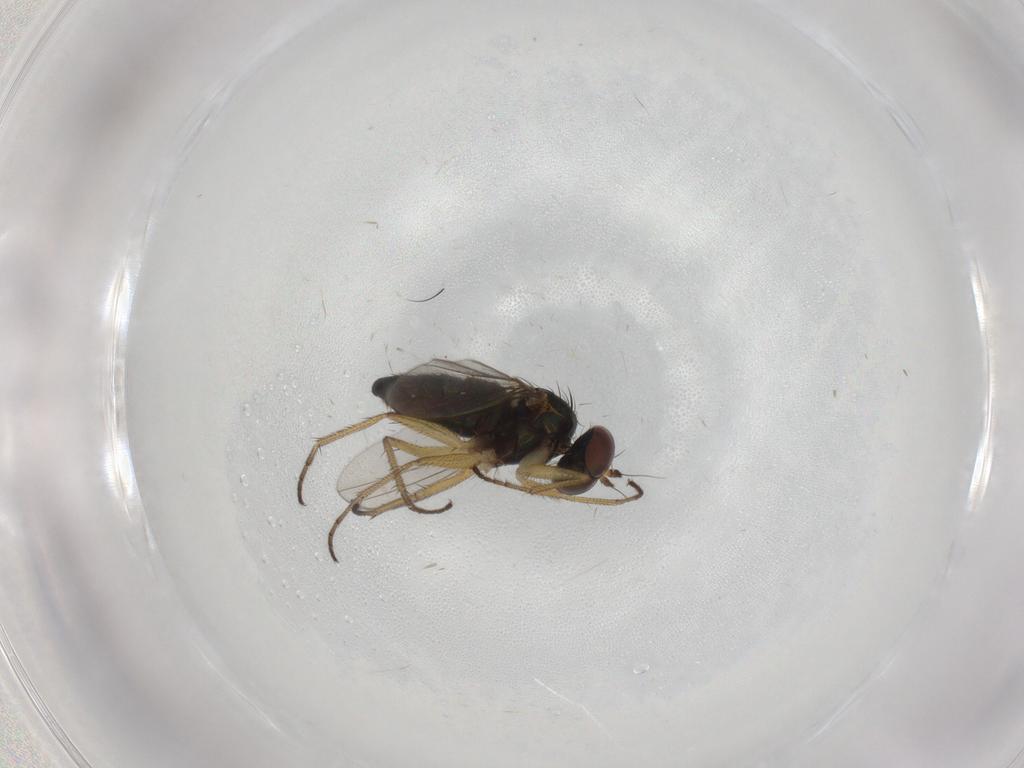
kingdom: Animalia
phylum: Arthropoda
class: Insecta
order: Diptera
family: Dolichopodidae
